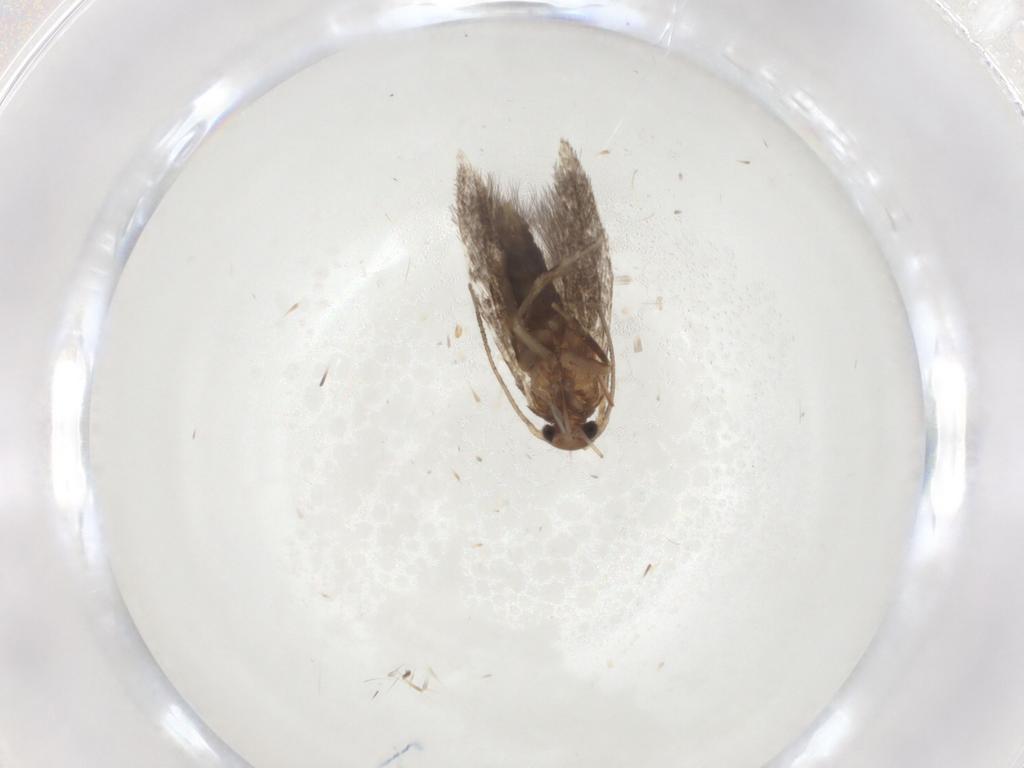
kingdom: Animalia
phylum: Arthropoda
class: Insecta
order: Lepidoptera
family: Elachistidae
